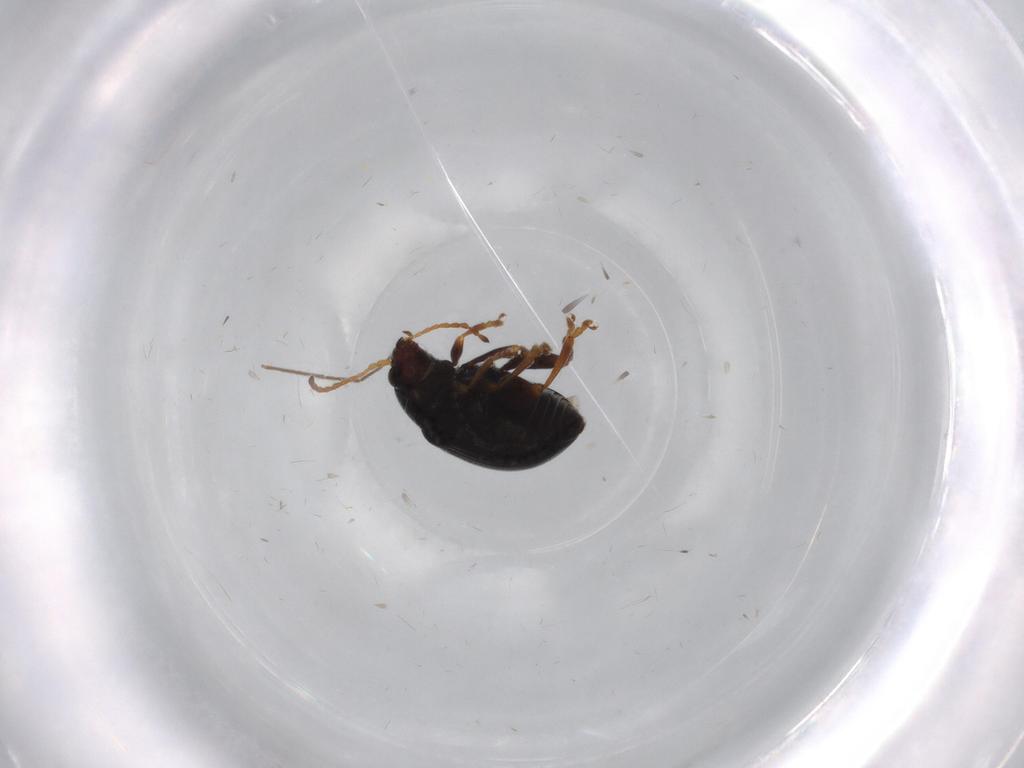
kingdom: Animalia
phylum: Arthropoda
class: Insecta
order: Coleoptera
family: Chrysomelidae
